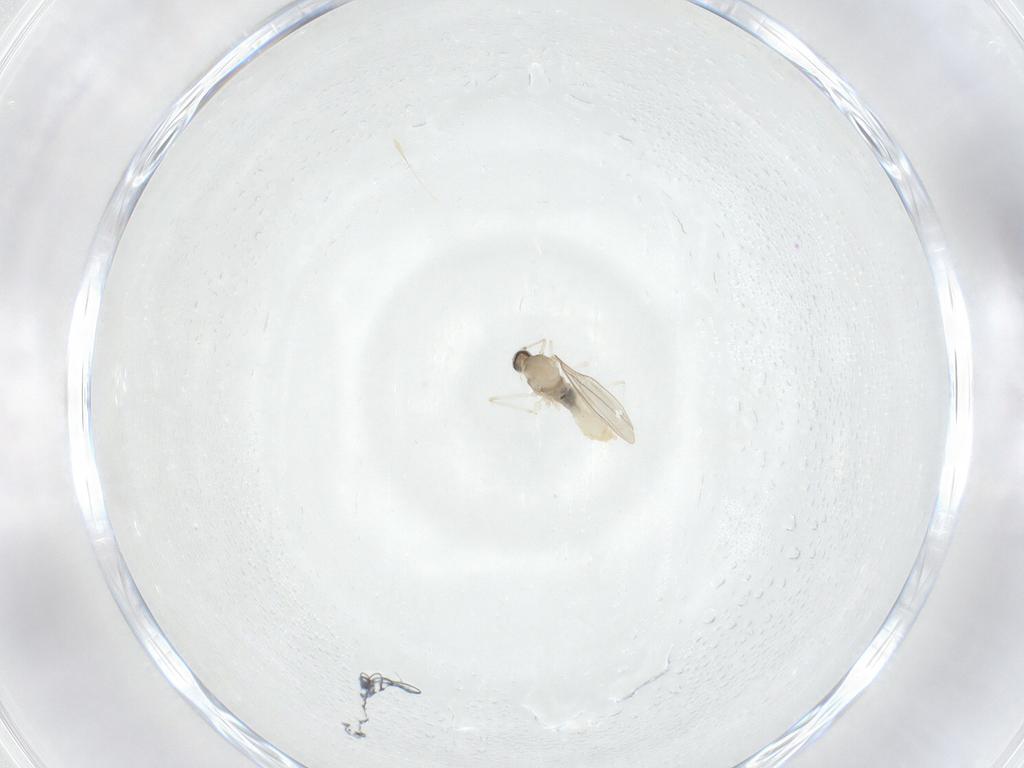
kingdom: Animalia
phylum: Arthropoda
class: Insecta
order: Diptera
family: Cecidomyiidae
